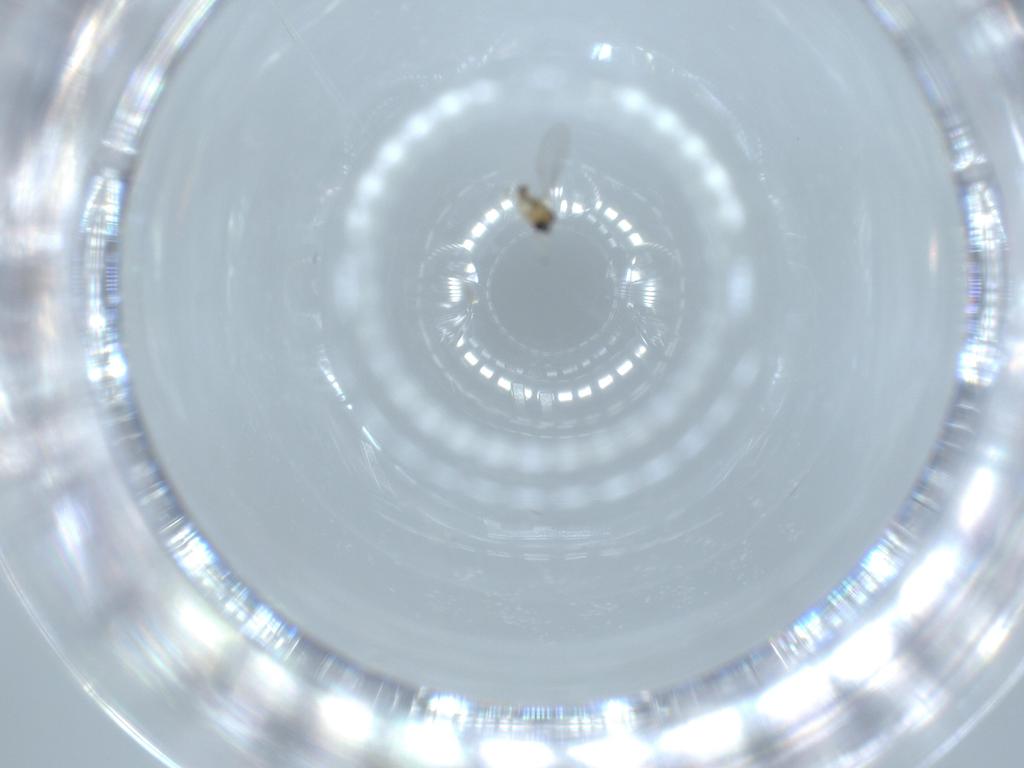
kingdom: Animalia
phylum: Arthropoda
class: Insecta
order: Diptera
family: Cecidomyiidae
